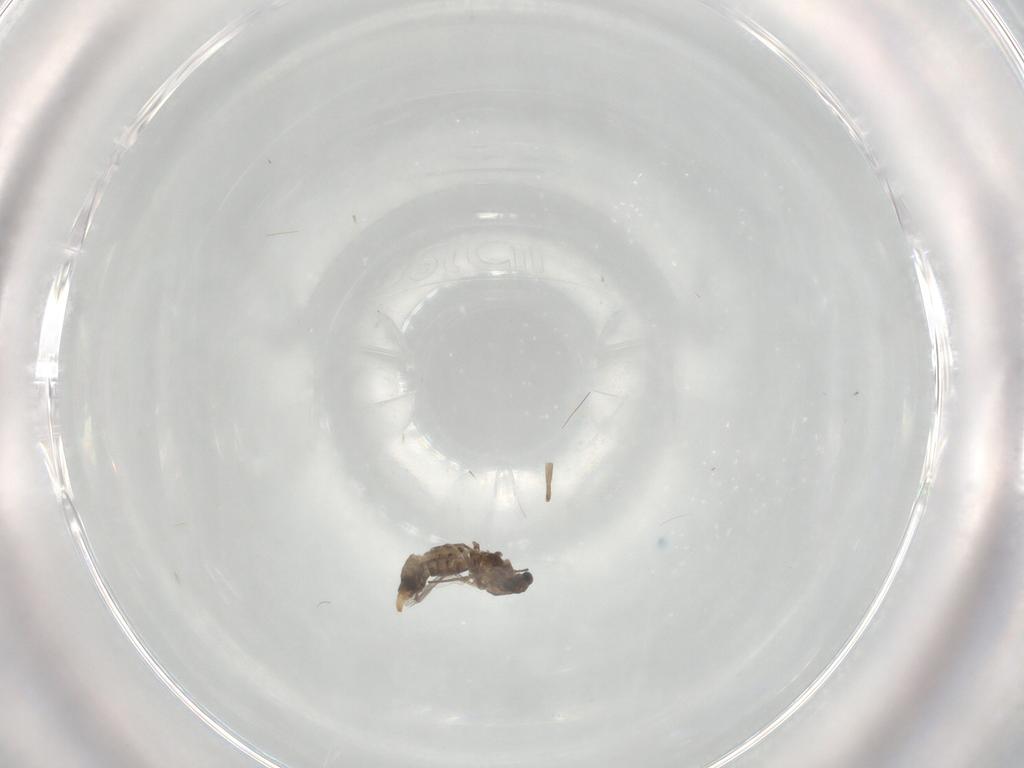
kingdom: Animalia
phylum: Arthropoda
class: Insecta
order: Diptera
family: Chironomidae
